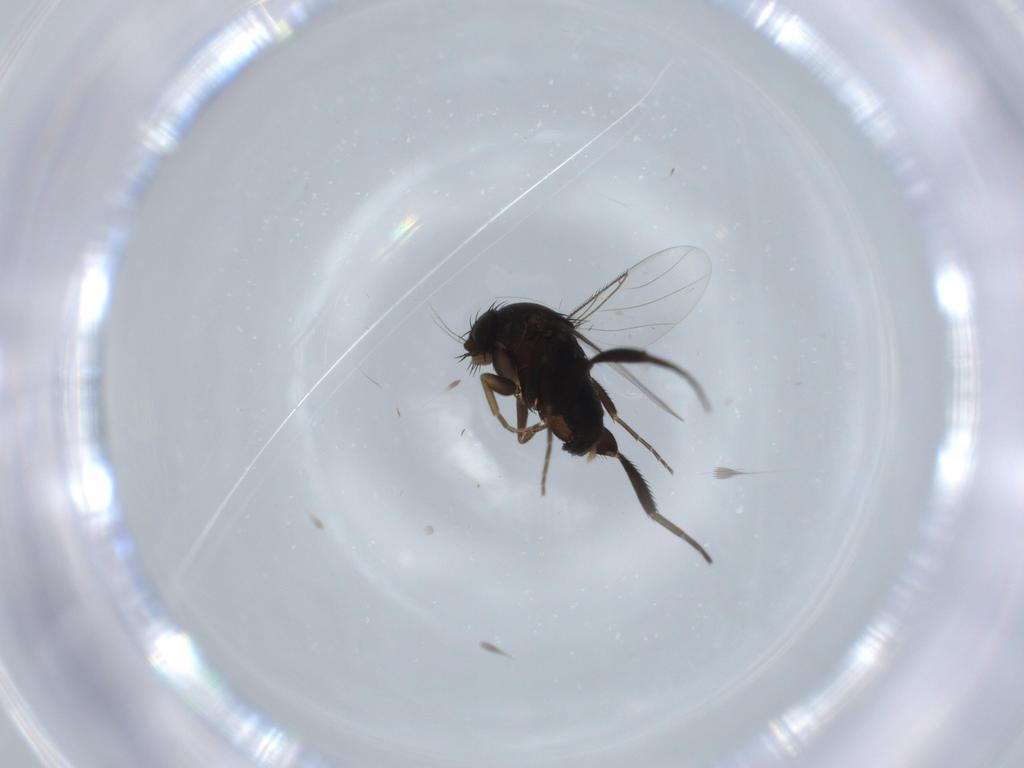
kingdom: Animalia
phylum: Arthropoda
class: Insecta
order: Diptera
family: Phoridae
